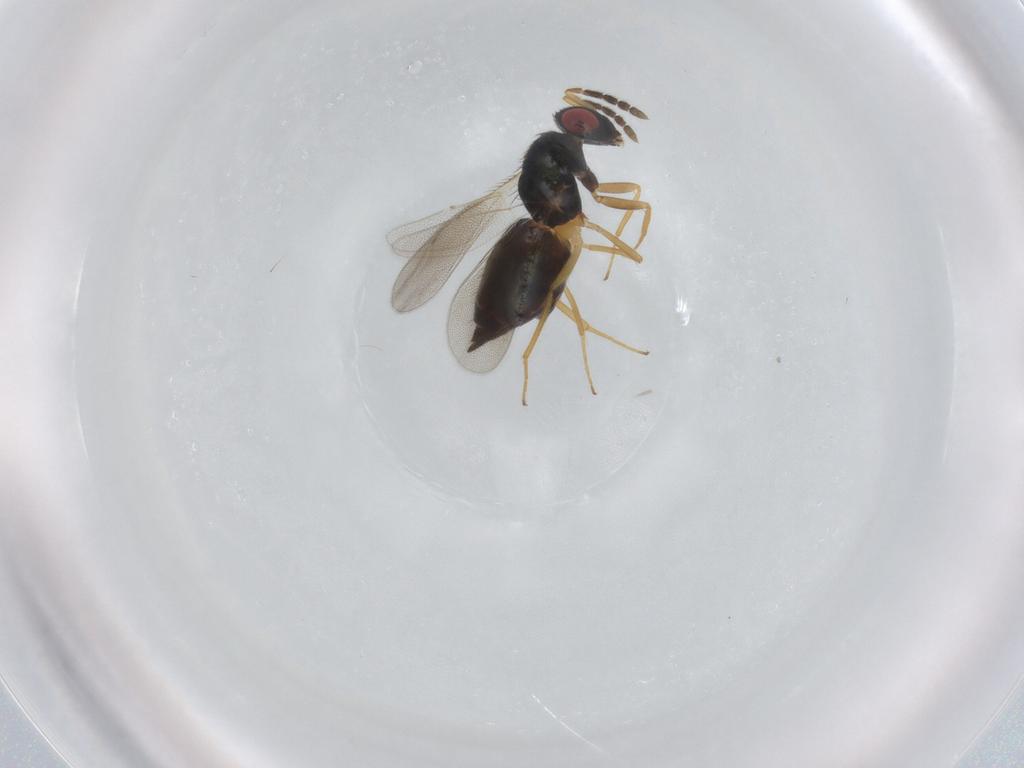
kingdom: Animalia
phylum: Arthropoda
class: Insecta
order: Hymenoptera
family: Eulophidae
